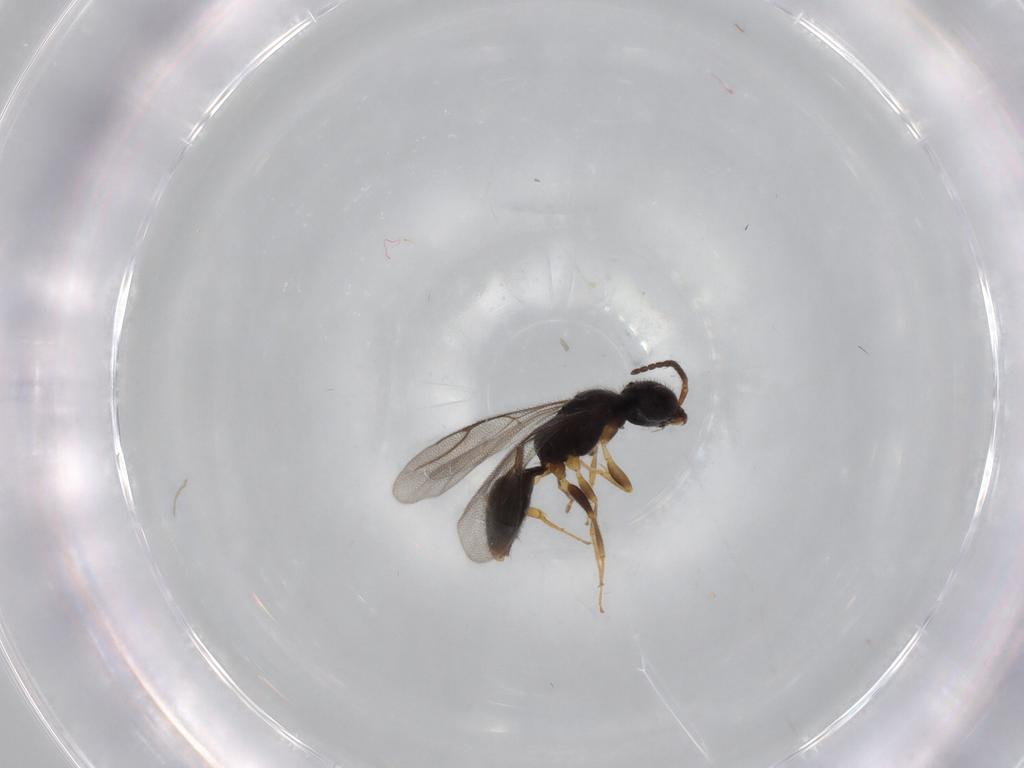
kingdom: Animalia
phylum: Arthropoda
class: Insecta
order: Hymenoptera
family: Bethylidae
